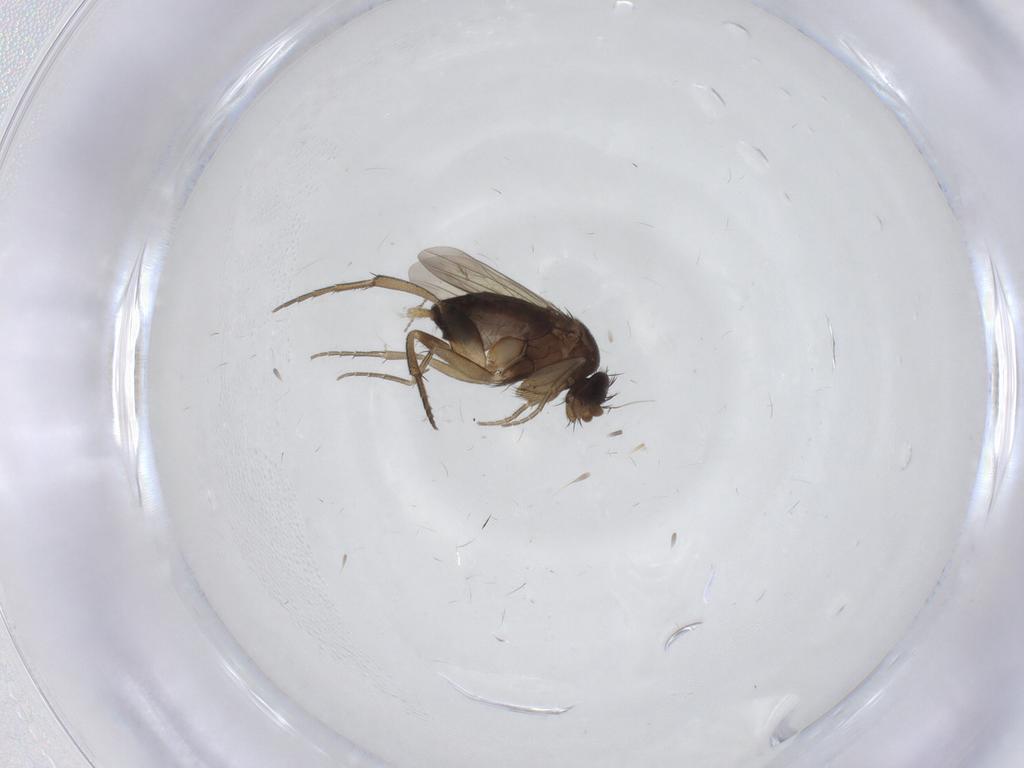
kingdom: Animalia
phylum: Arthropoda
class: Insecta
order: Diptera
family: Phoridae
